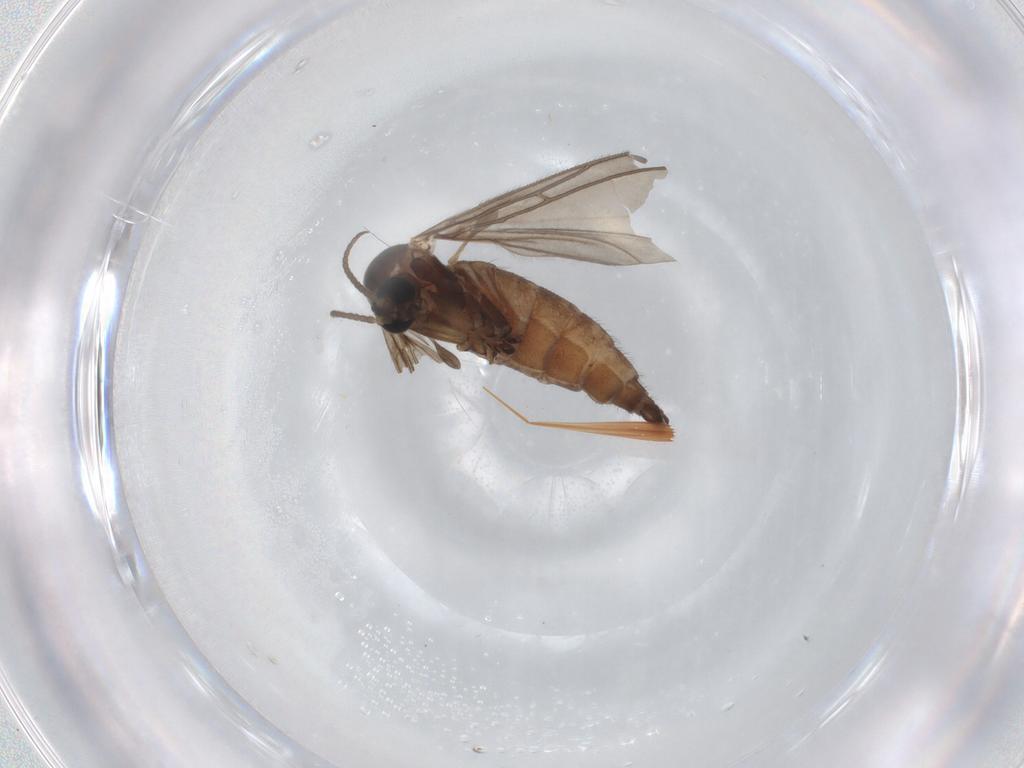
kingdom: Animalia
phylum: Arthropoda
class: Insecta
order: Diptera
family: Sciaridae
